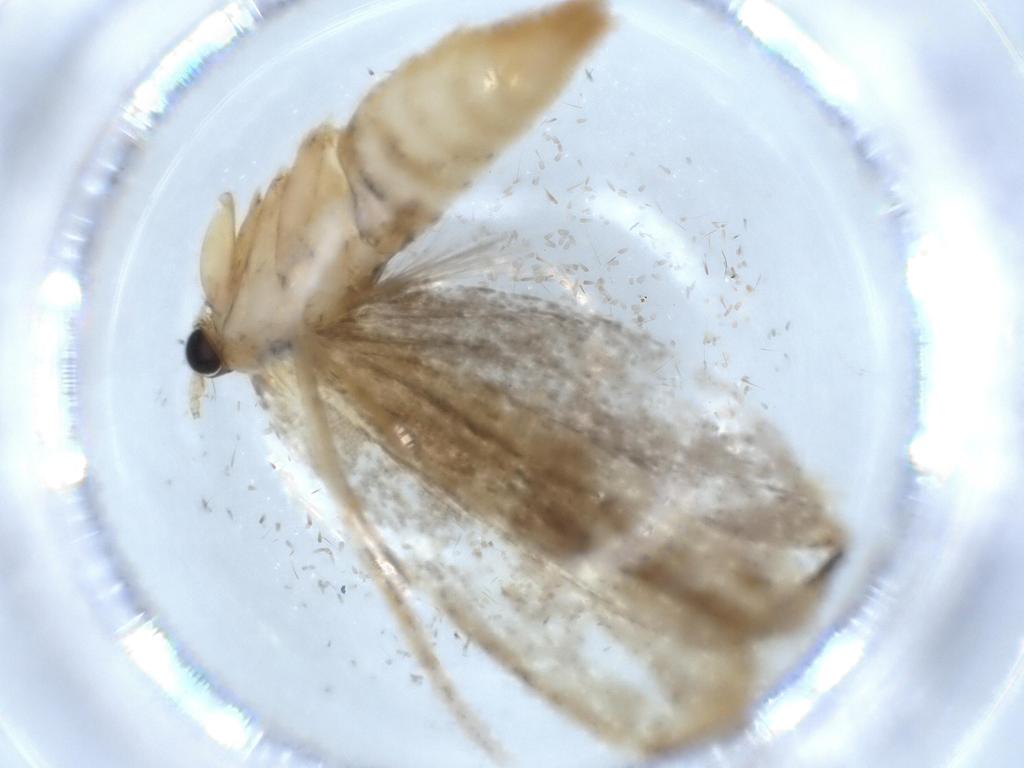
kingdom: Animalia
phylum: Arthropoda
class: Insecta
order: Lepidoptera
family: Tineidae
